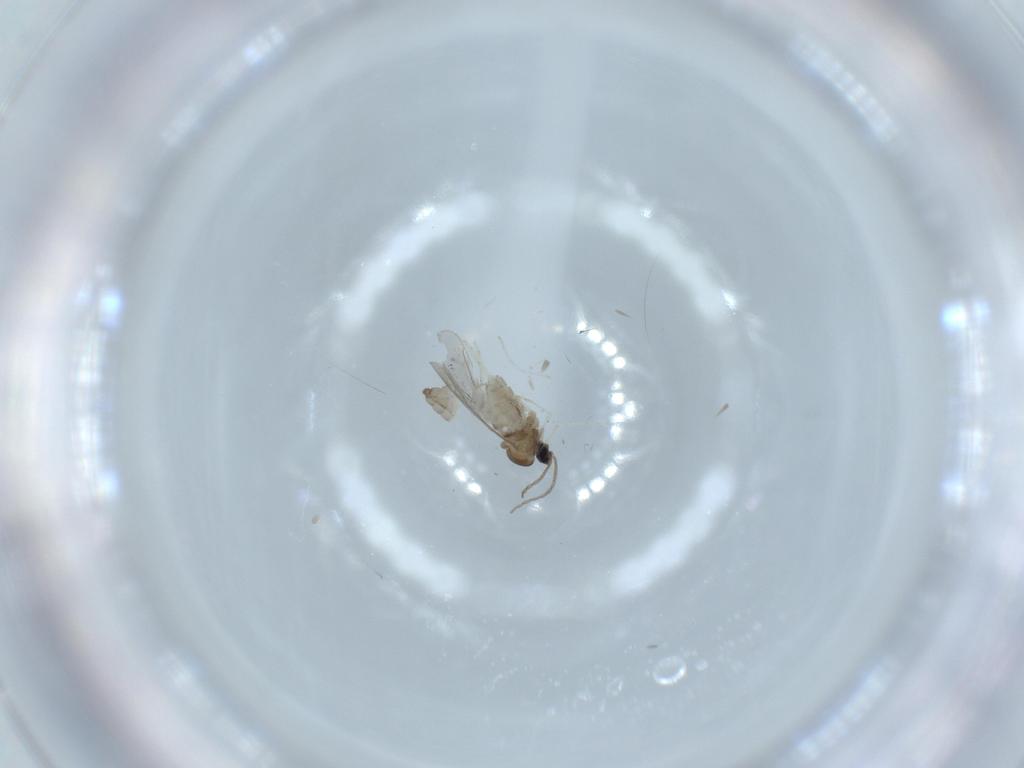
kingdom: Animalia
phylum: Arthropoda
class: Insecta
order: Diptera
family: Cecidomyiidae
